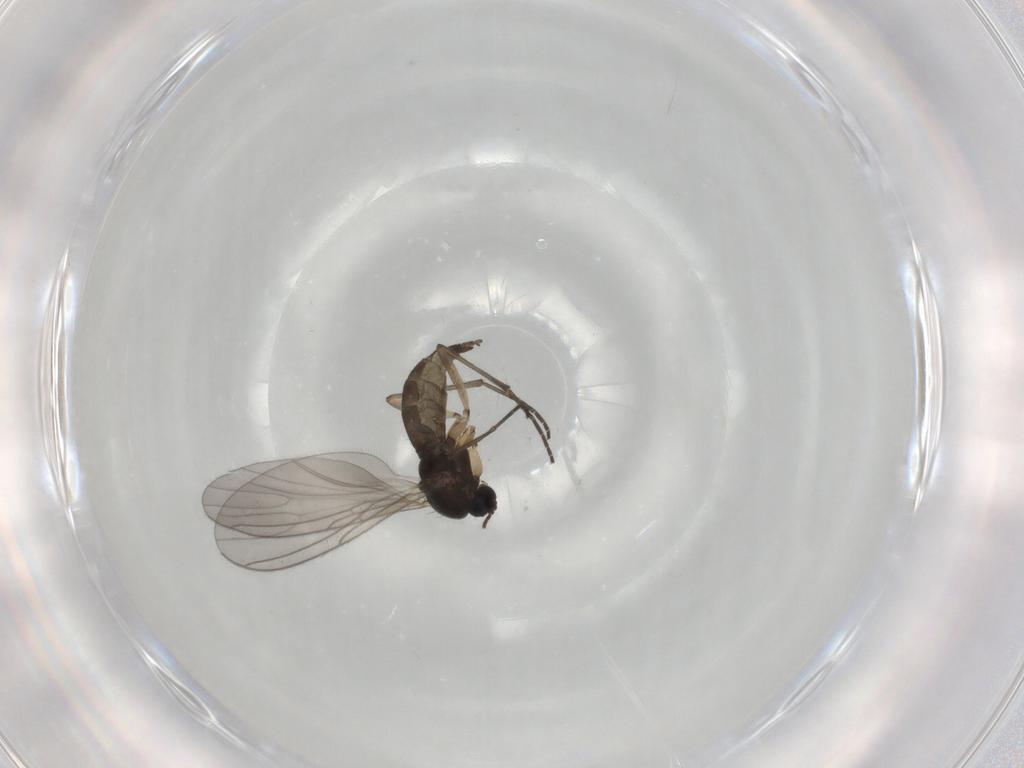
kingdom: Animalia
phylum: Arthropoda
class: Insecta
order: Diptera
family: Sciaridae
